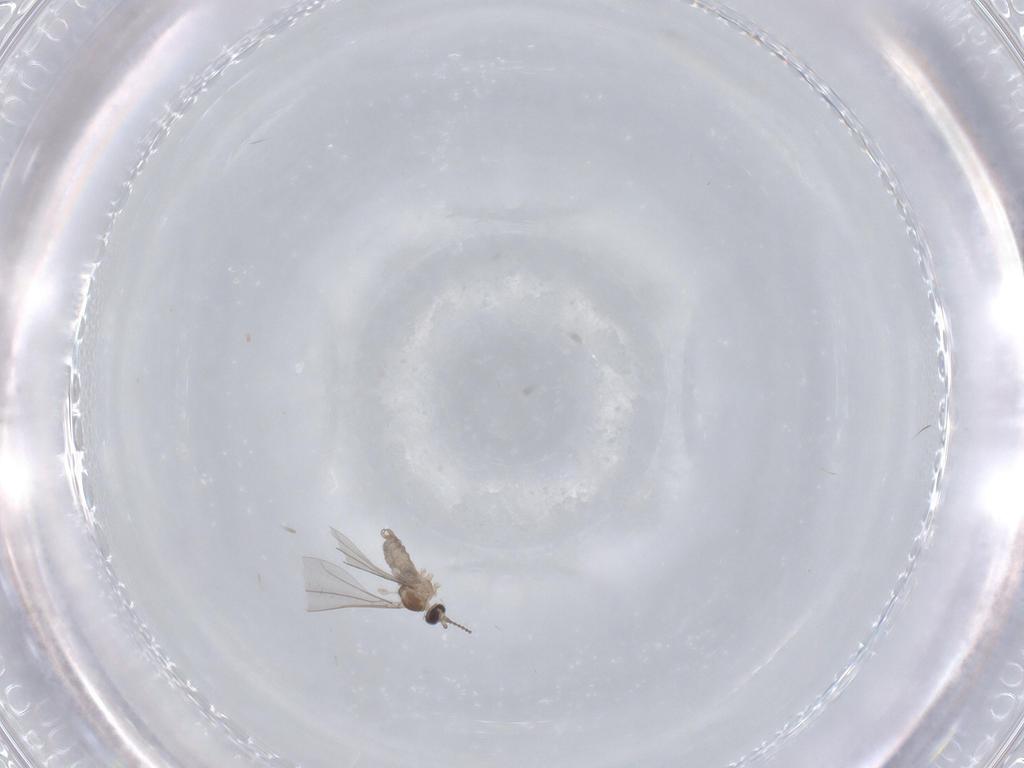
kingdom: Animalia
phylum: Arthropoda
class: Insecta
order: Diptera
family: Cecidomyiidae
